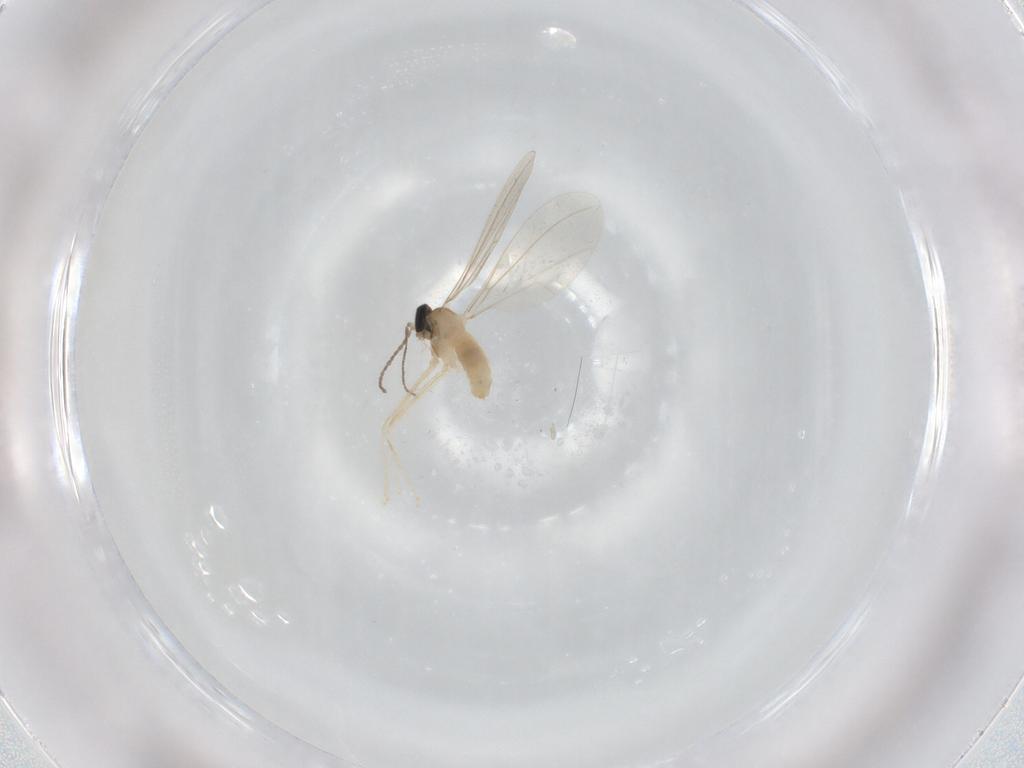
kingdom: Animalia
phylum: Arthropoda
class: Insecta
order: Diptera
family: Cecidomyiidae
